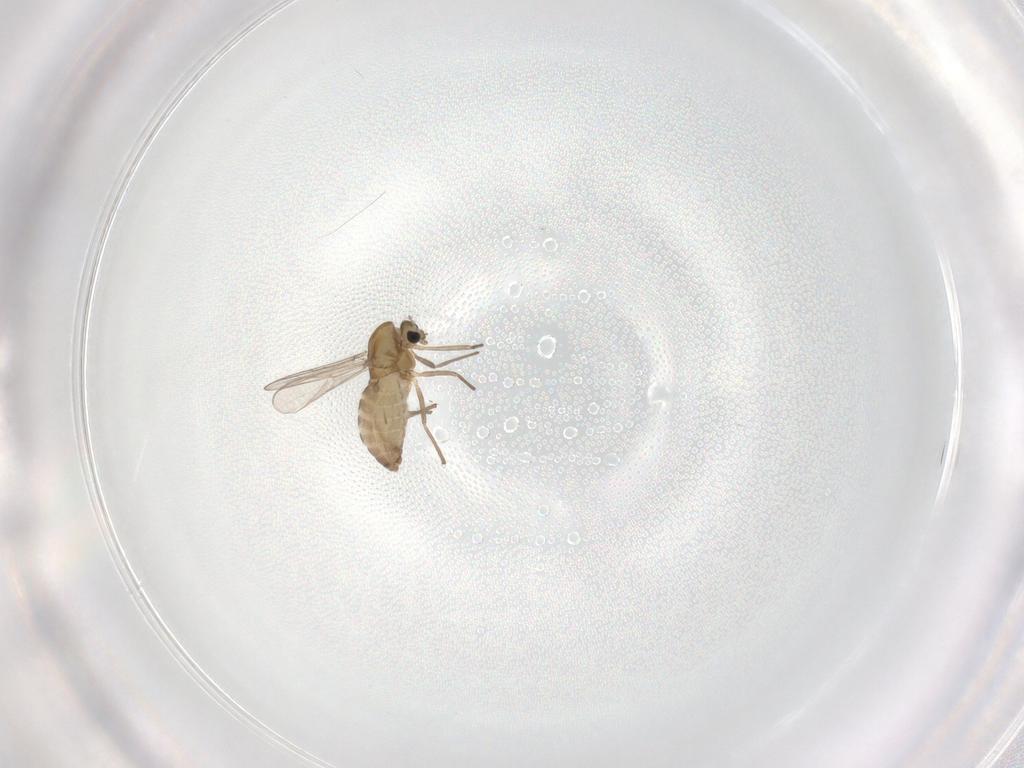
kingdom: Animalia
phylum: Arthropoda
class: Insecta
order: Diptera
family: Chironomidae
